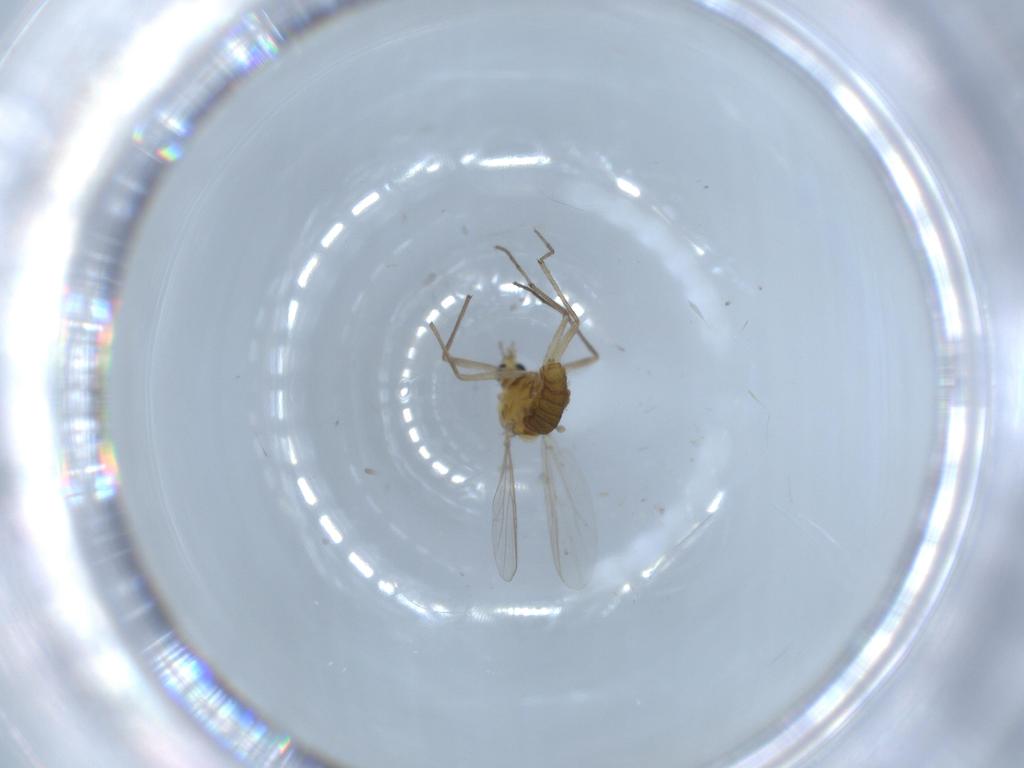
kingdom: Animalia
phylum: Arthropoda
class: Insecta
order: Diptera
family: Chironomidae
